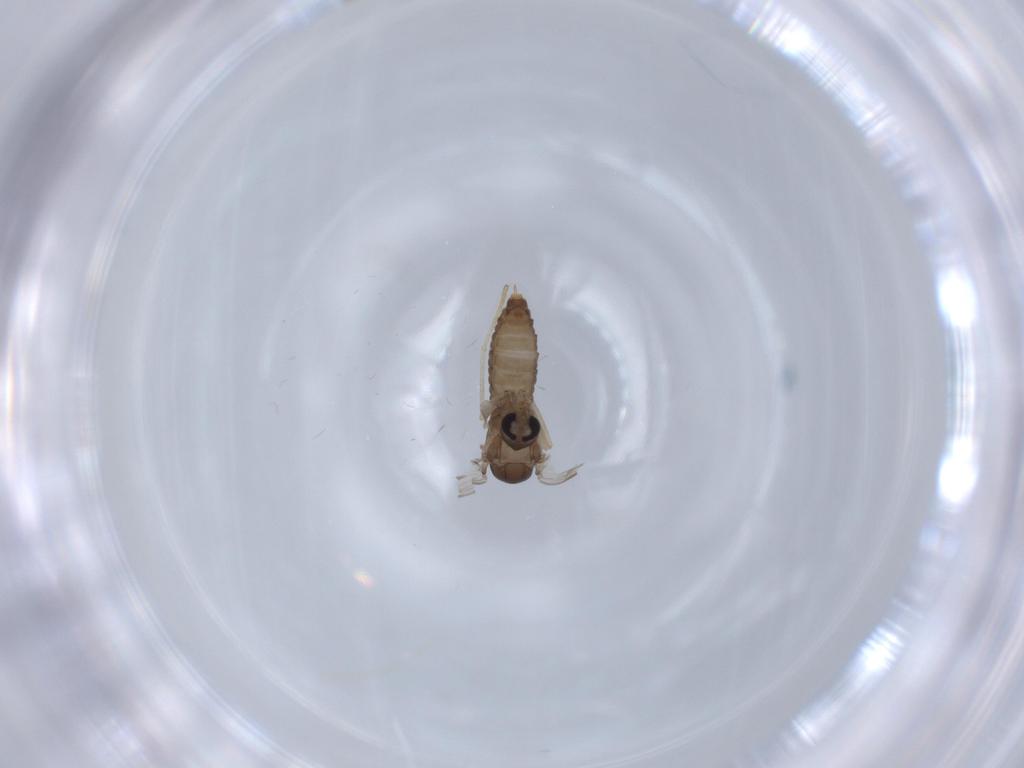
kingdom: Animalia
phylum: Arthropoda
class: Insecta
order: Diptera
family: Psychodidae
